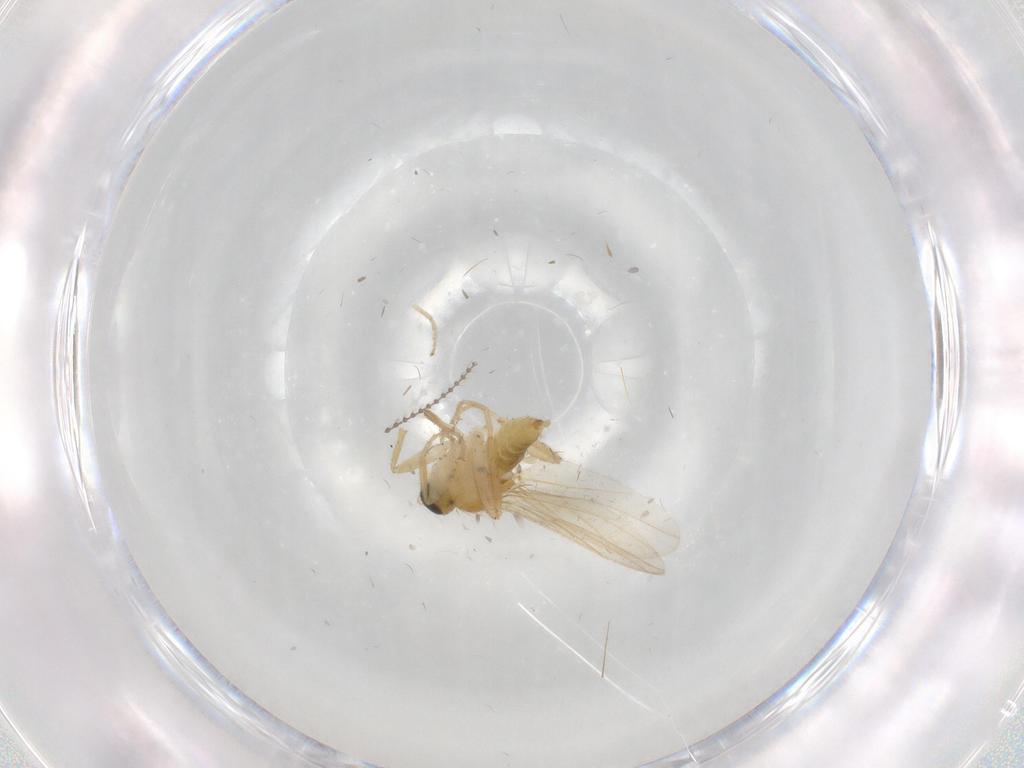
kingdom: Animalia
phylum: Arthropoda
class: Insecta
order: Diptera
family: Hybotidae
